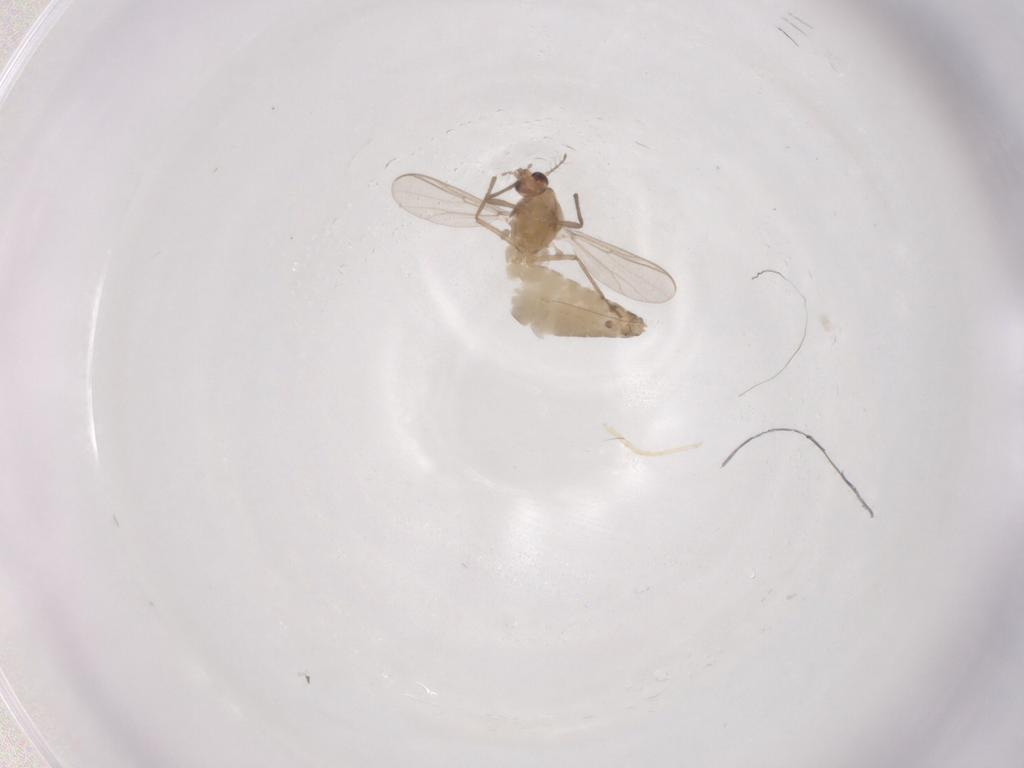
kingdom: Animalia
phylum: Arthropoda
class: Insecta
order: Diptera
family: Chironomidae
